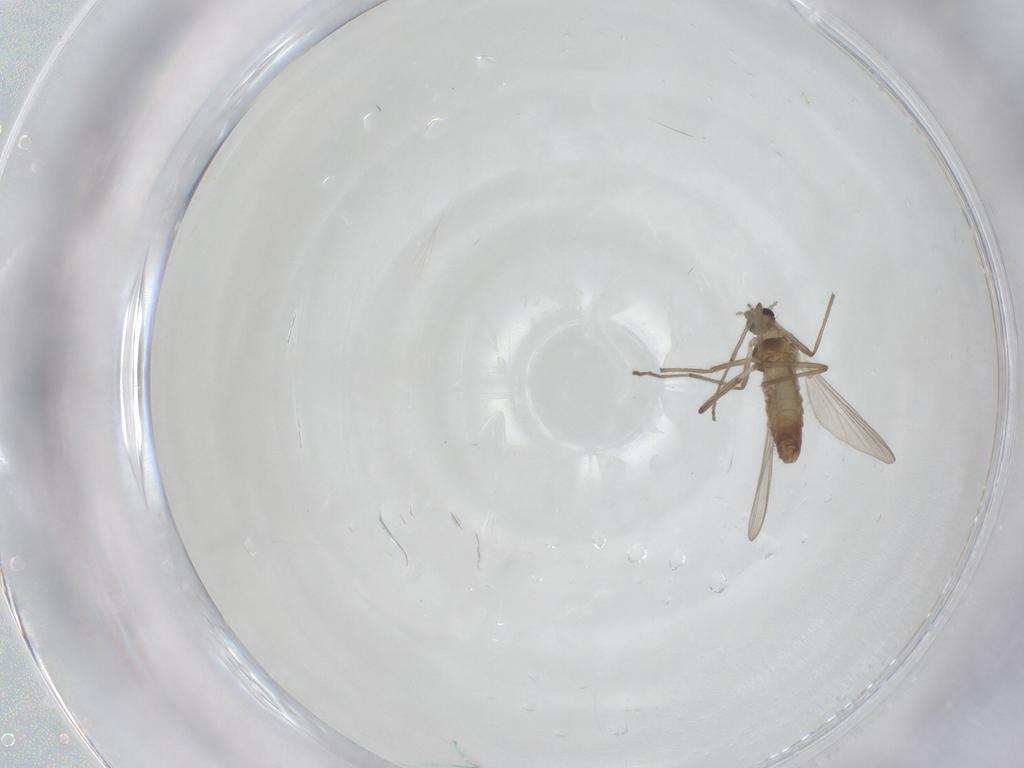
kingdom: Animalia
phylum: Arthropoda
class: Insecta
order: Diptera
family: Chironomidae
